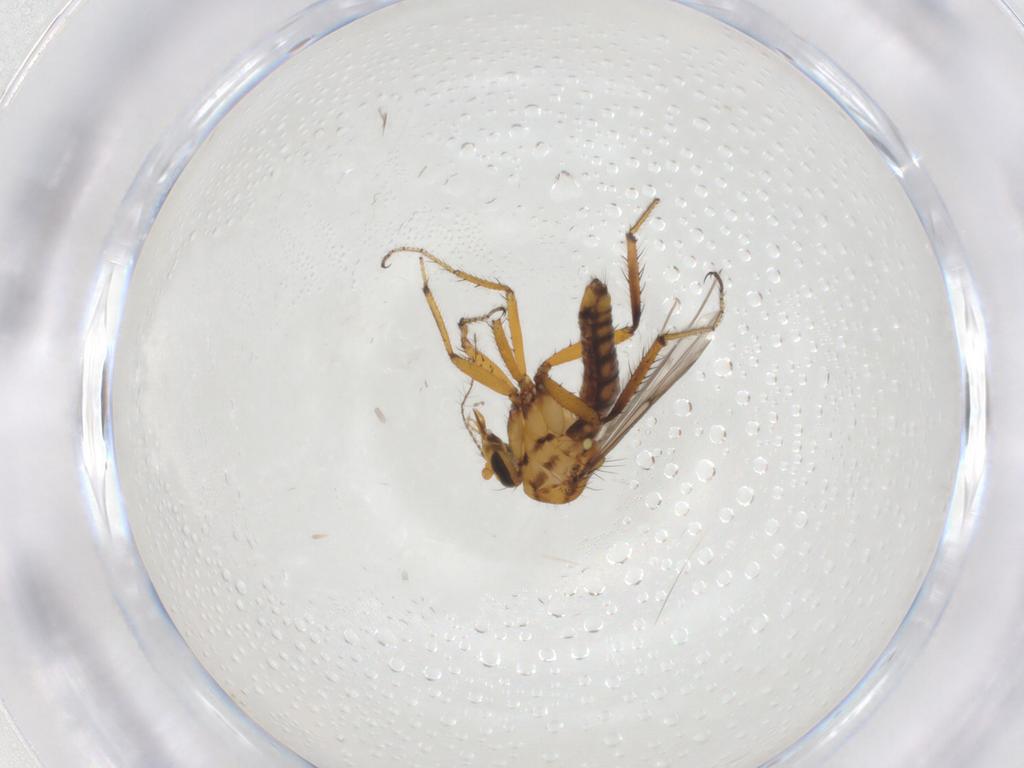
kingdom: Animalia
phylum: Arthropoda
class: Insecta
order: Diptera
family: Ceratopogonidae
